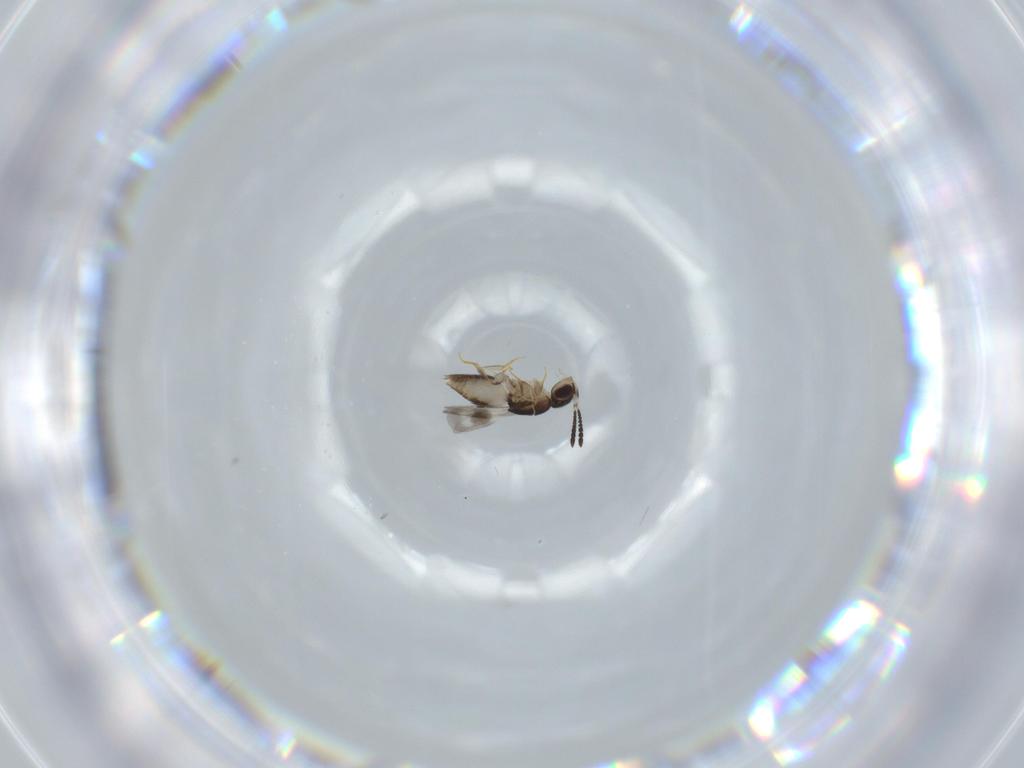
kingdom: Animalia
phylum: Arthropoda
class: Insecta
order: Hymenoptera
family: Ceraphronidae
